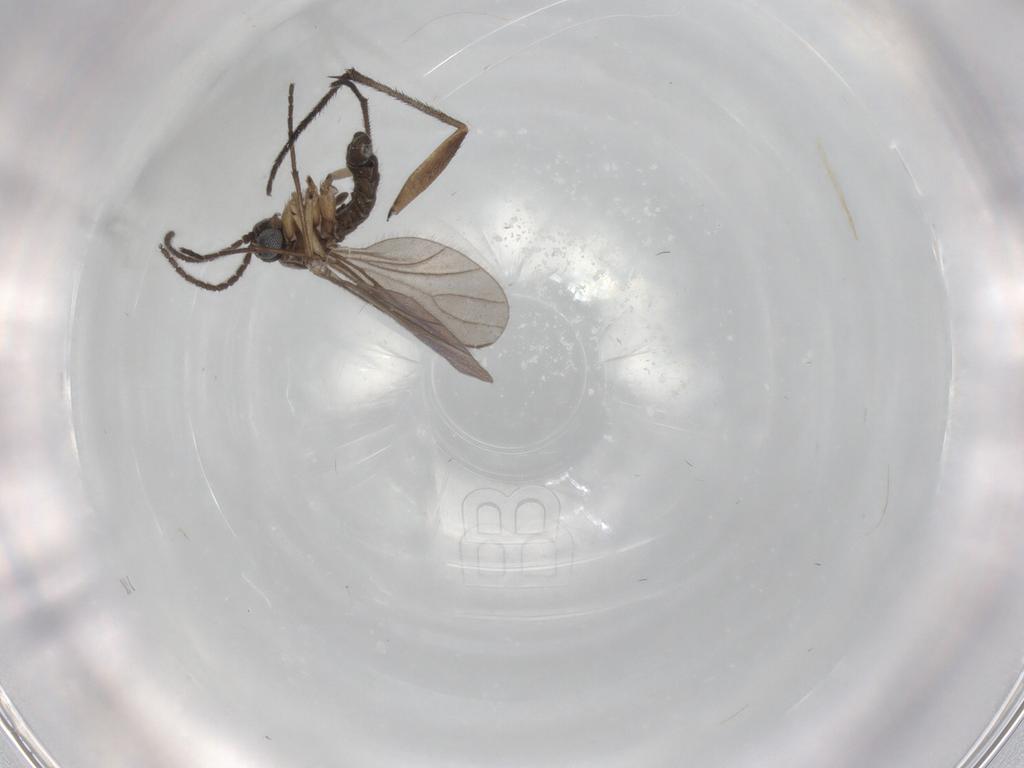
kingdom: Animalia
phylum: Arthropoda
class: Insecta
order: Diptera
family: Sciaridae
